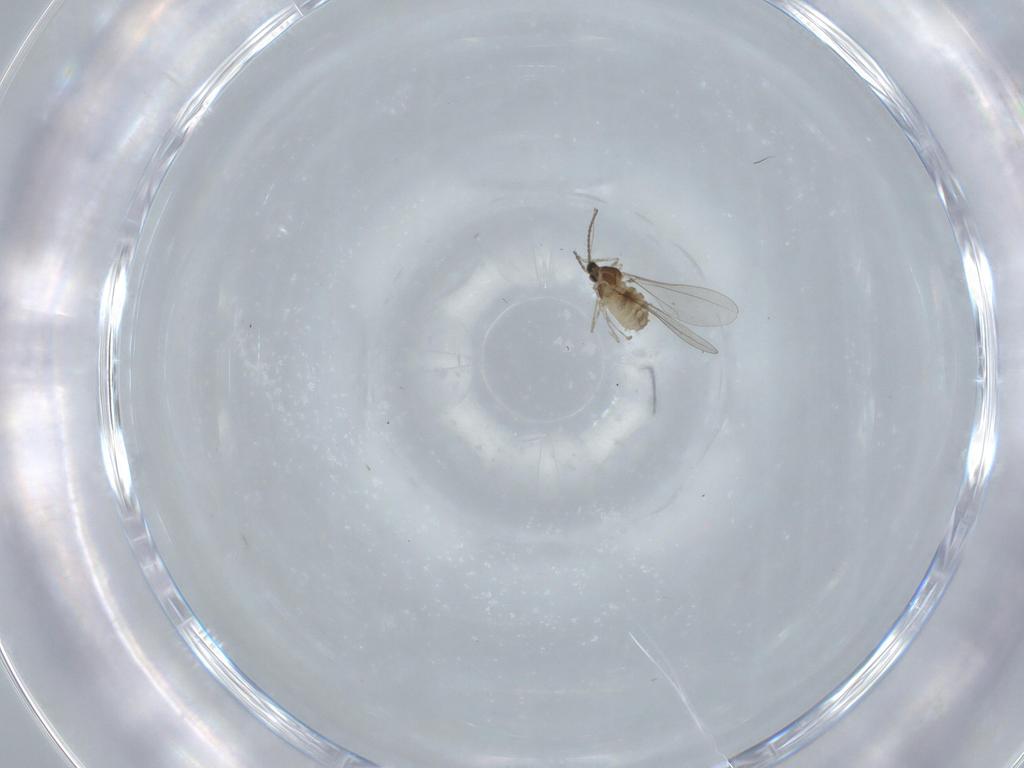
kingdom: Animalia
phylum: Arthropoda
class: Insecta
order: Diptera
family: Cecidomyiidae
